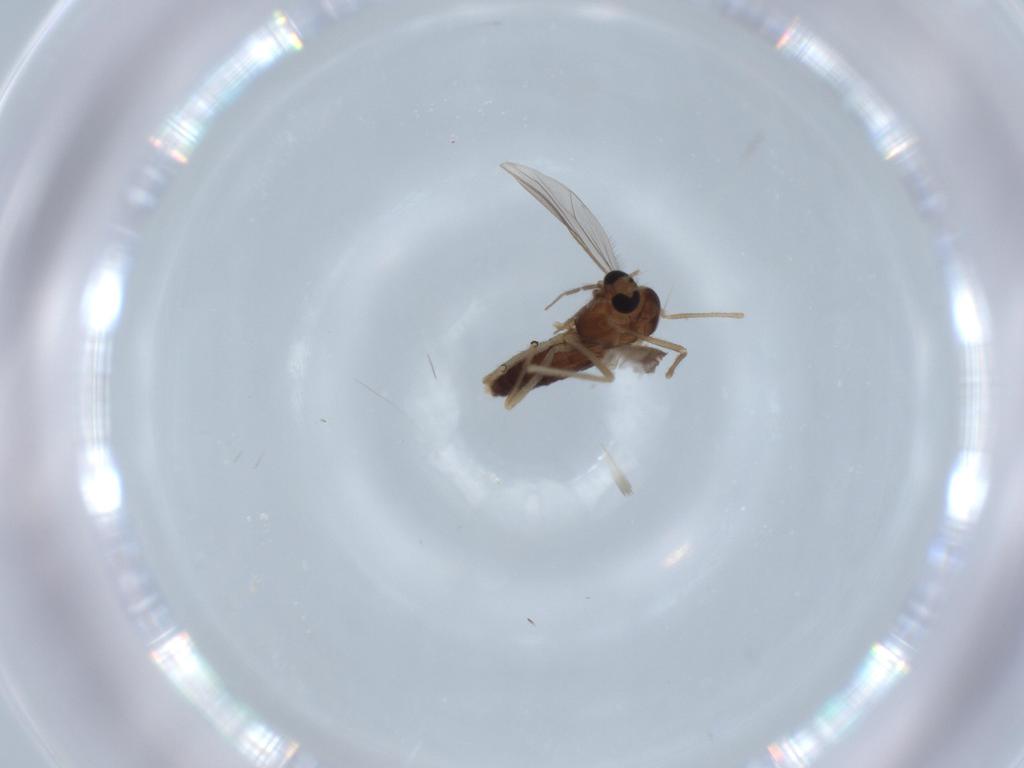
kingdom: Animalia
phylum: Arthropoda
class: Insecta
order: Diptera
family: Chironomidae
